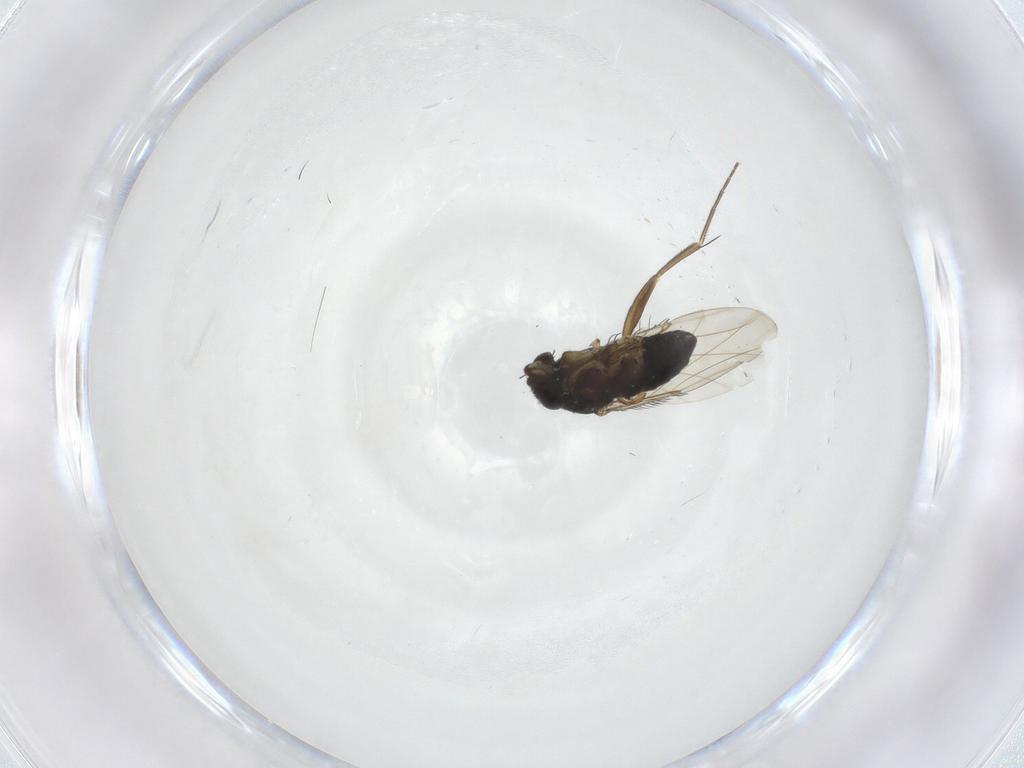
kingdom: Animalia
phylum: Arthropoda
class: Insecta
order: Diptera
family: Phoridae
